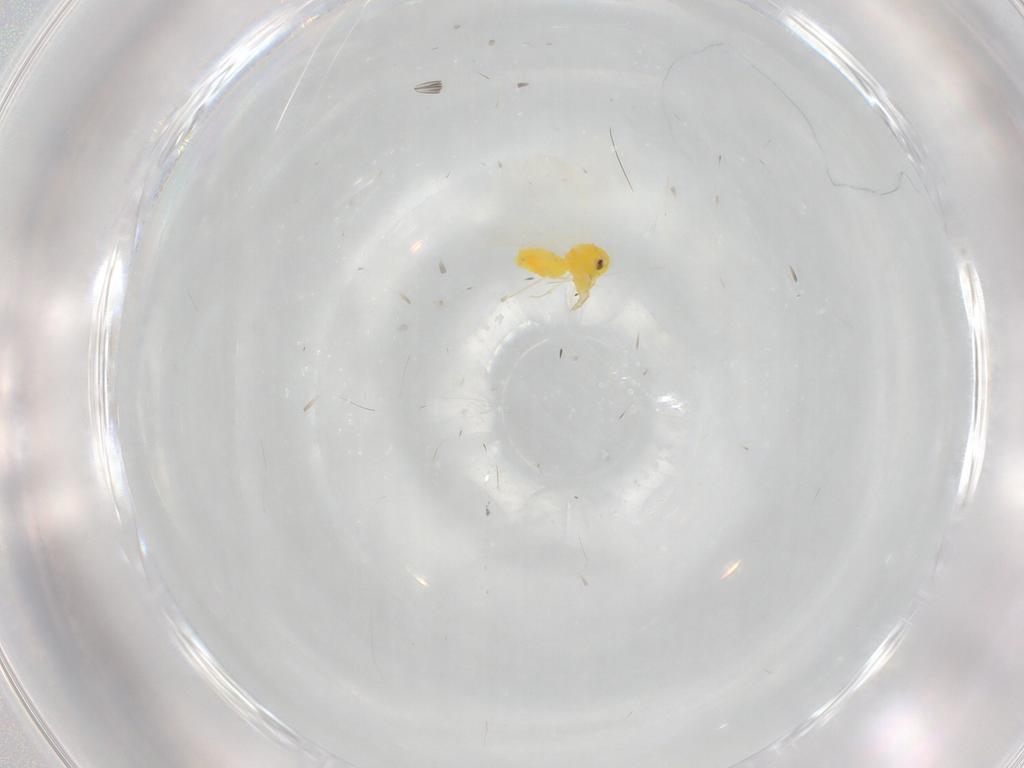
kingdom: Animalia
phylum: Arthropoda
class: Insecta
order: Hemiptera
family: Miridae
